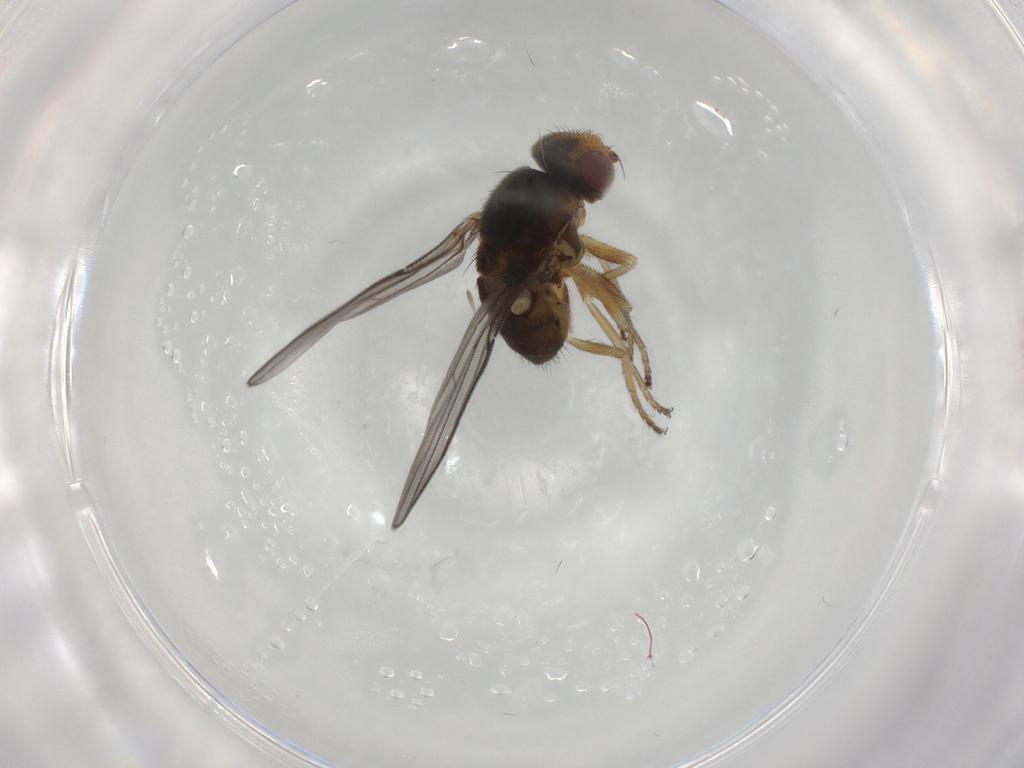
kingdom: Animalia
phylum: Arthropoda
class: Insecta
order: Diptera
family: Chloropidae
